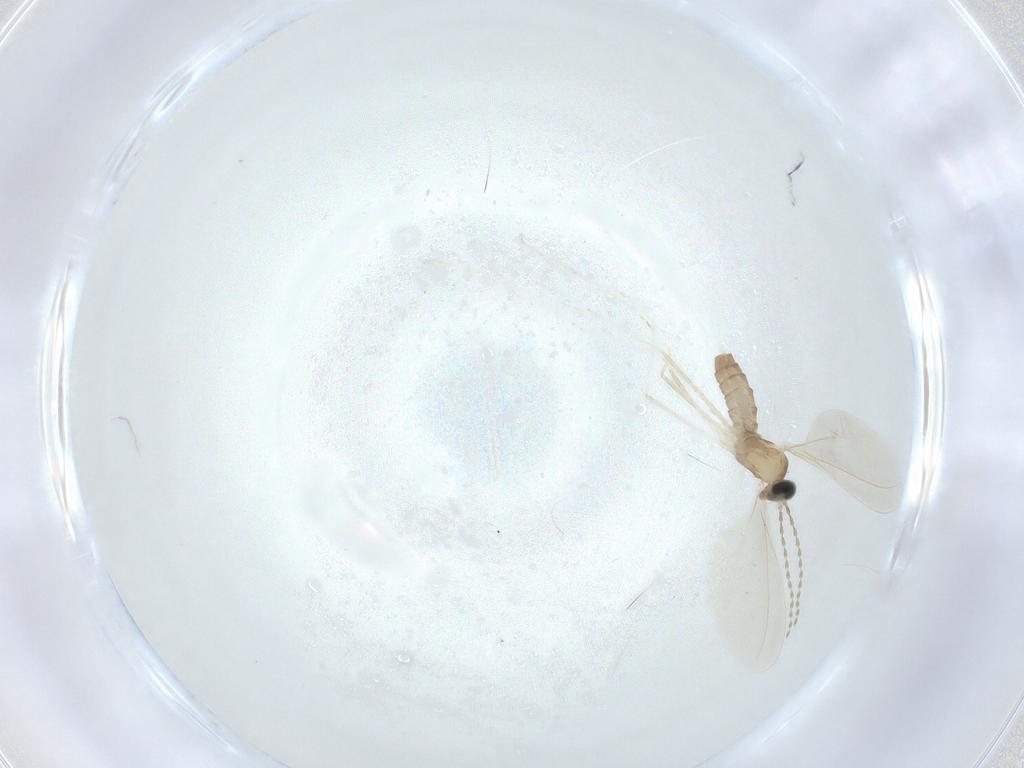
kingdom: Animalia
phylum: Arthropoda
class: Insecta
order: Diptera
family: Cecidomyiidae
